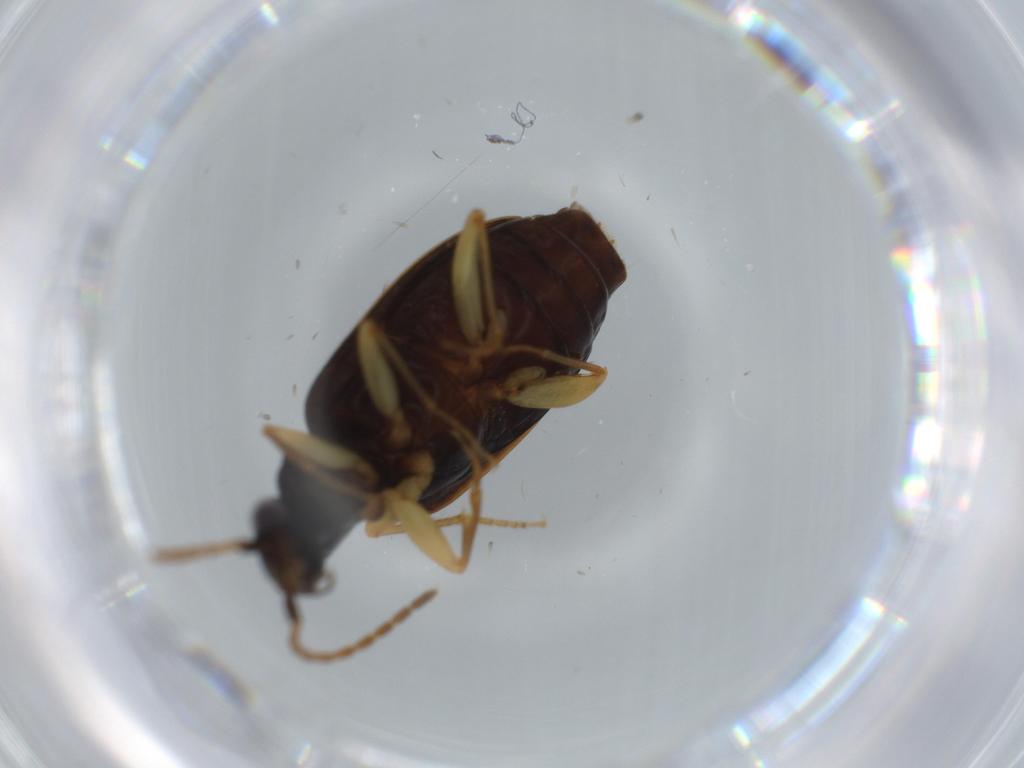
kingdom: Animalia
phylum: Arthropoda
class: Insecta
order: Coleoptera
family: Carabidae
